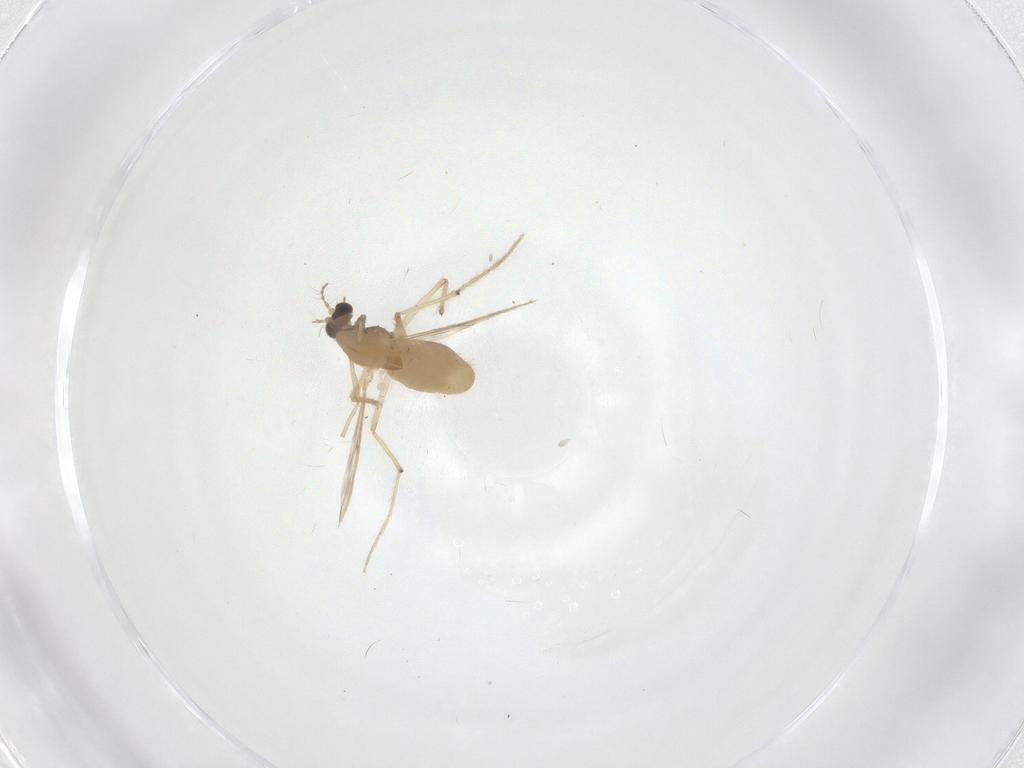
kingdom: Animalia
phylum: Arthropoda
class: Insecta
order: Diptera
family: Chironomidae
